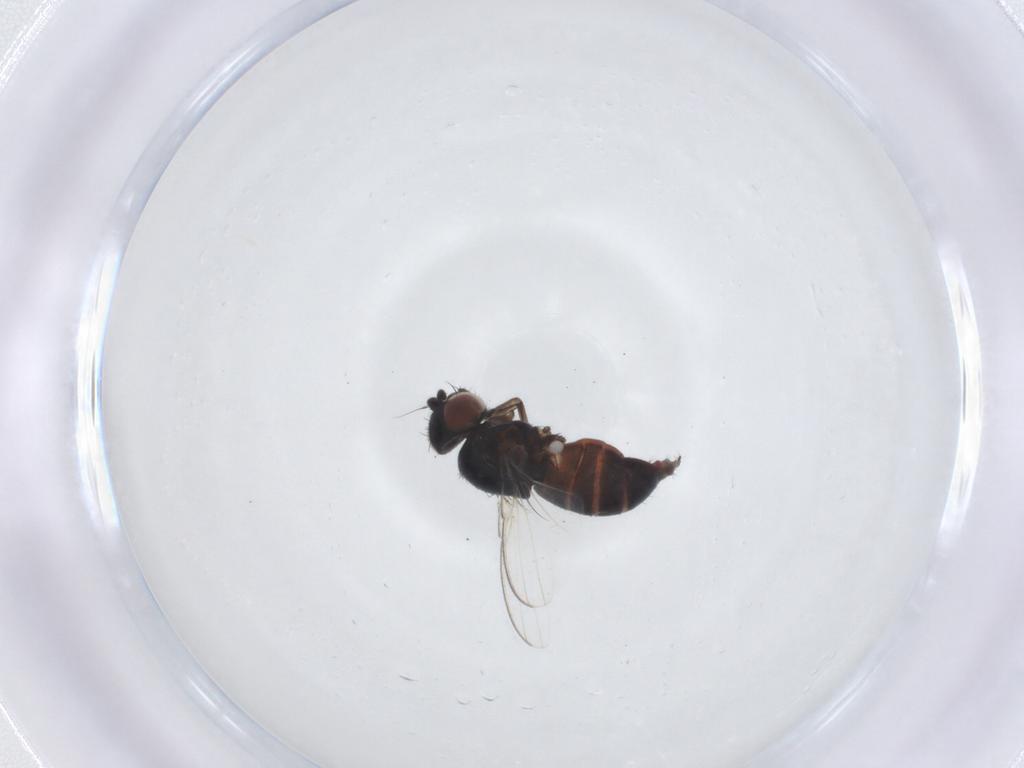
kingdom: Animalia
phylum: Arthropoda
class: Insecta
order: Diptera
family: Milichiidae
